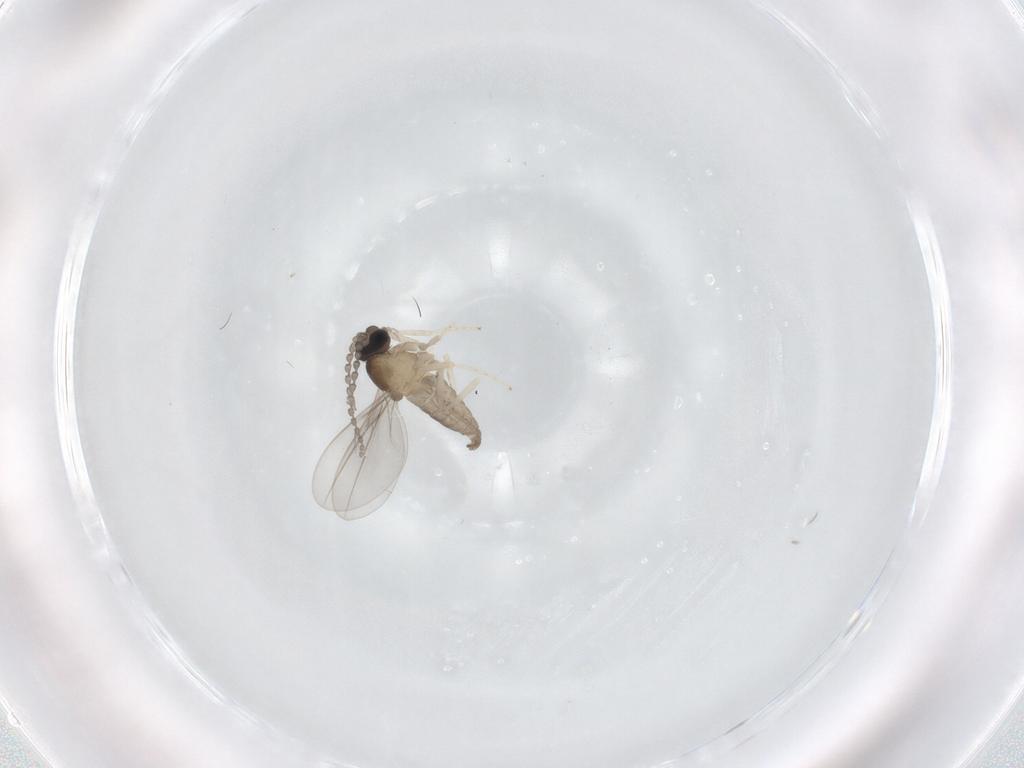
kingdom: Animalia
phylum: Arthropoda
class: Insecta
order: Diptera
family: Cecidomyiidae
